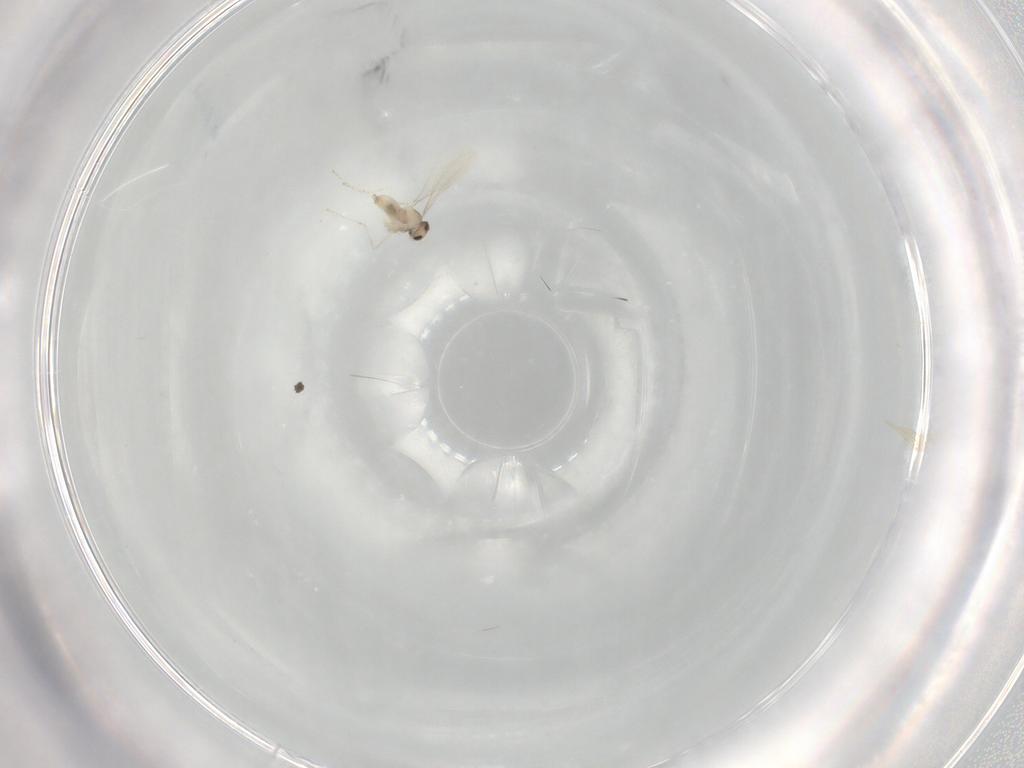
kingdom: Animalia
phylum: Arthropoda
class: Insecta
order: Diptera
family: Cecidomyiidae
